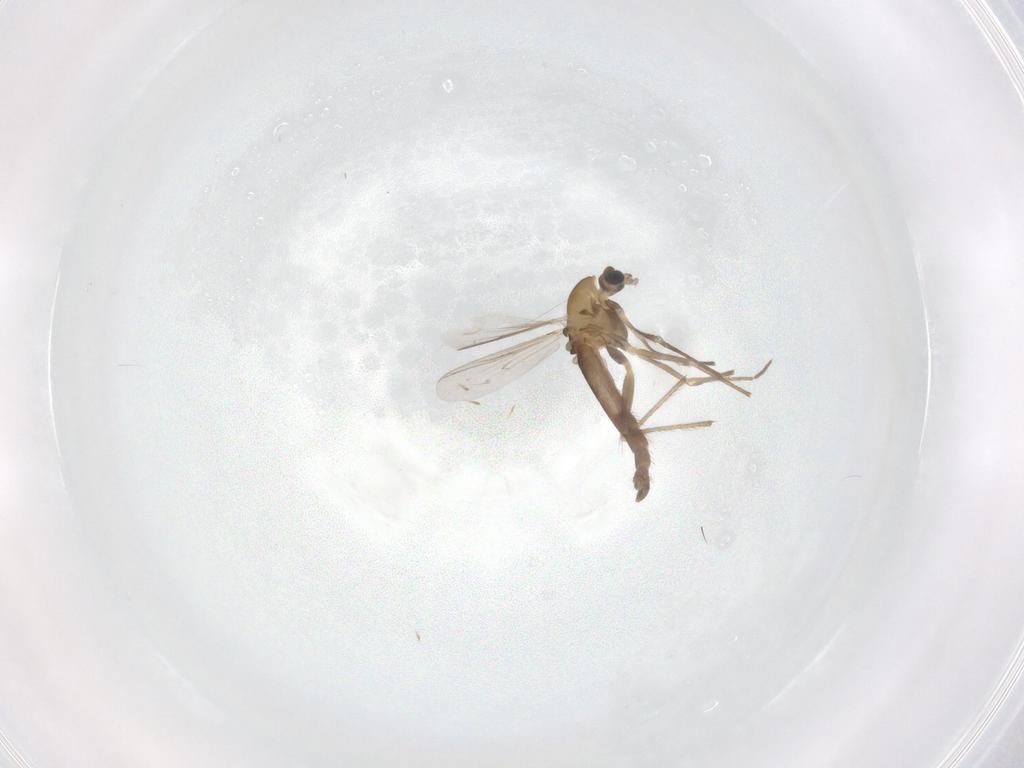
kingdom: Animalia
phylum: Arthropoda
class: Insecta
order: Diptera
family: Chironomidae
